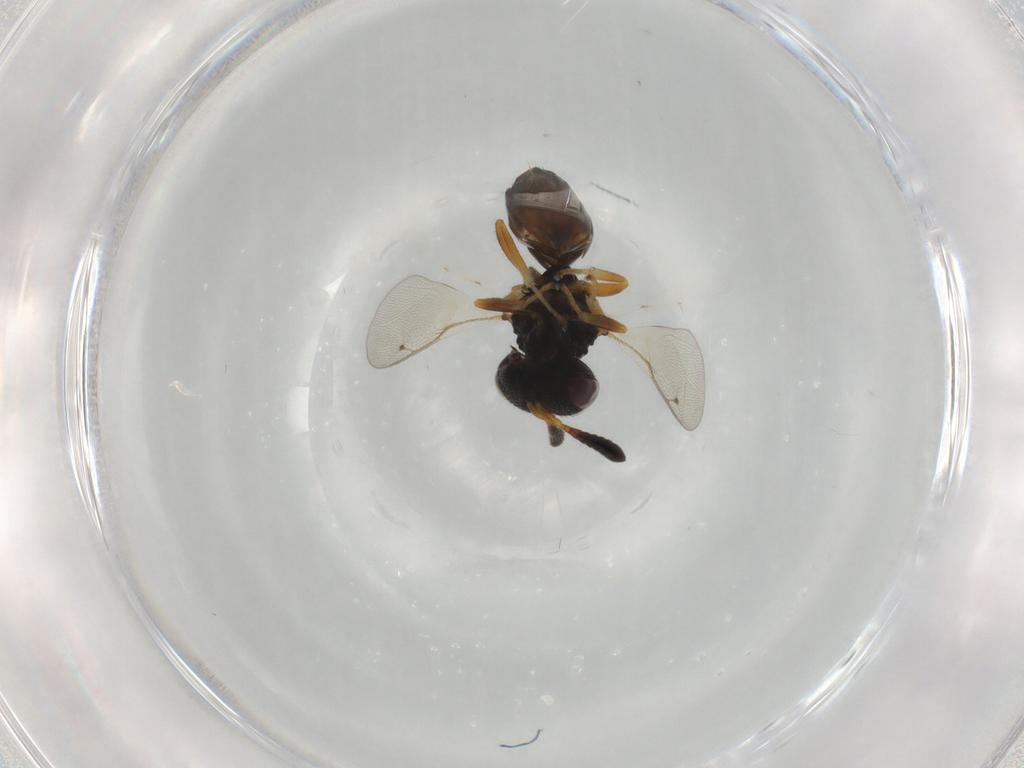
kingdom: Animalia
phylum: Arthropoda
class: Insecta
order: Hymenoptera
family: Agaonidae
